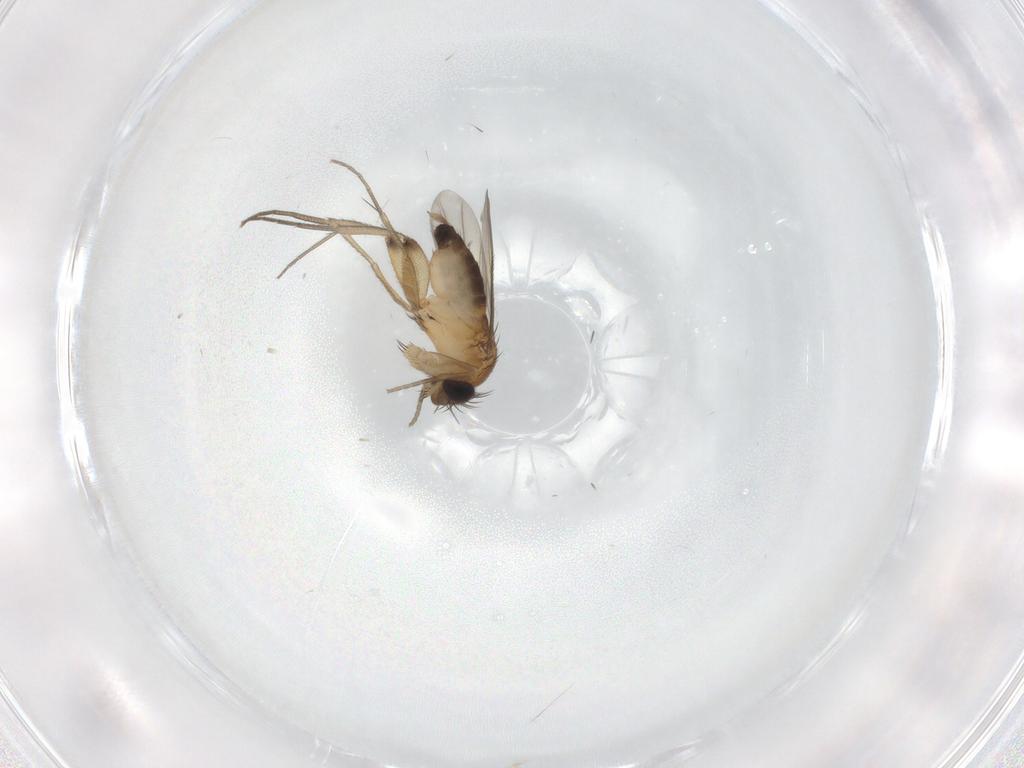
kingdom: Animalia
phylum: Arthropoda
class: Insecta
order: Diptera
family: Phoridae
